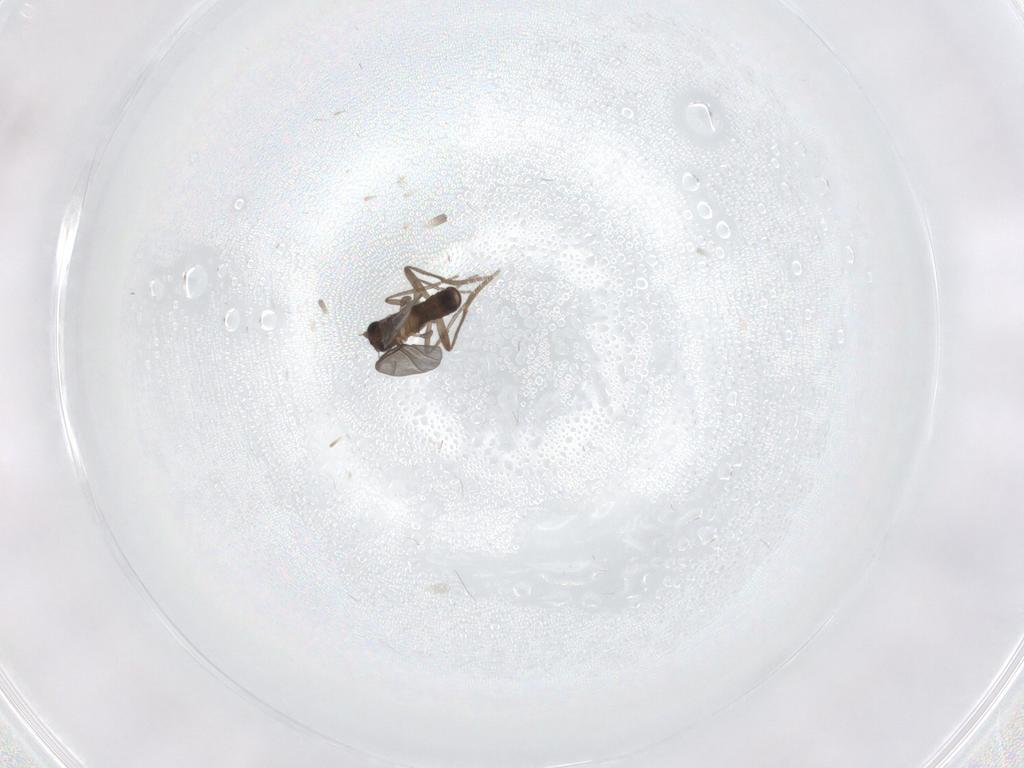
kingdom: Animalia
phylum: Arthropoda
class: Insecta
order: Diptera
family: Phoridae
